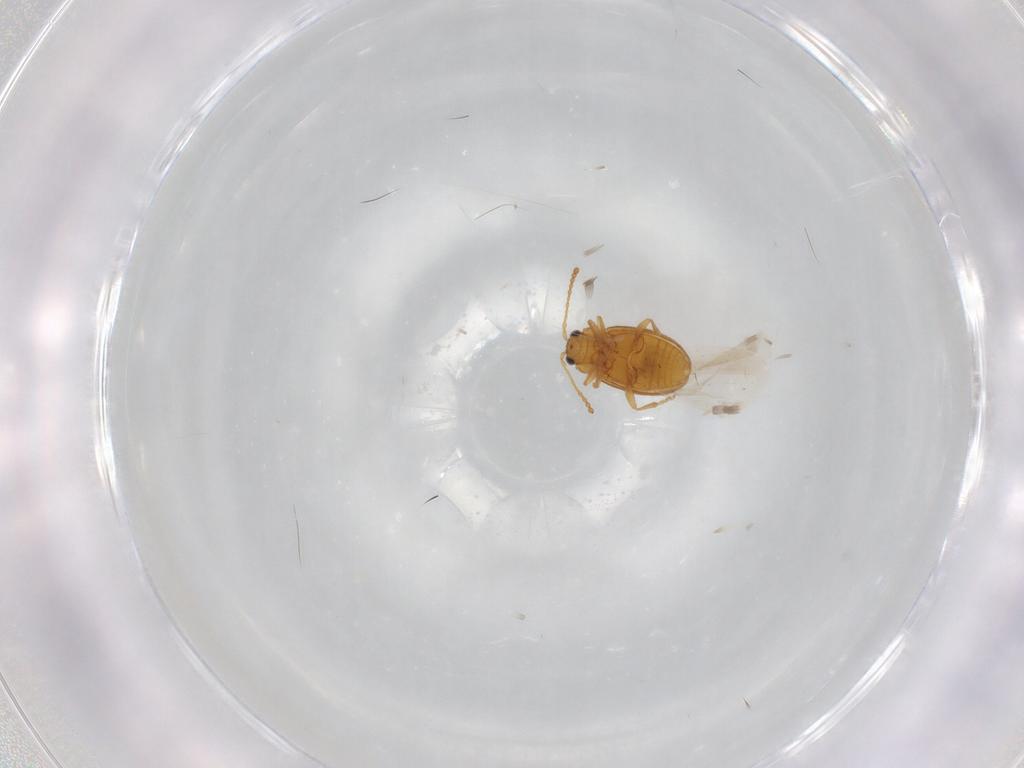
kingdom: Animalia
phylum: Arthropoda
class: Insecta
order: Coleoptera
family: Chrysomelidae
